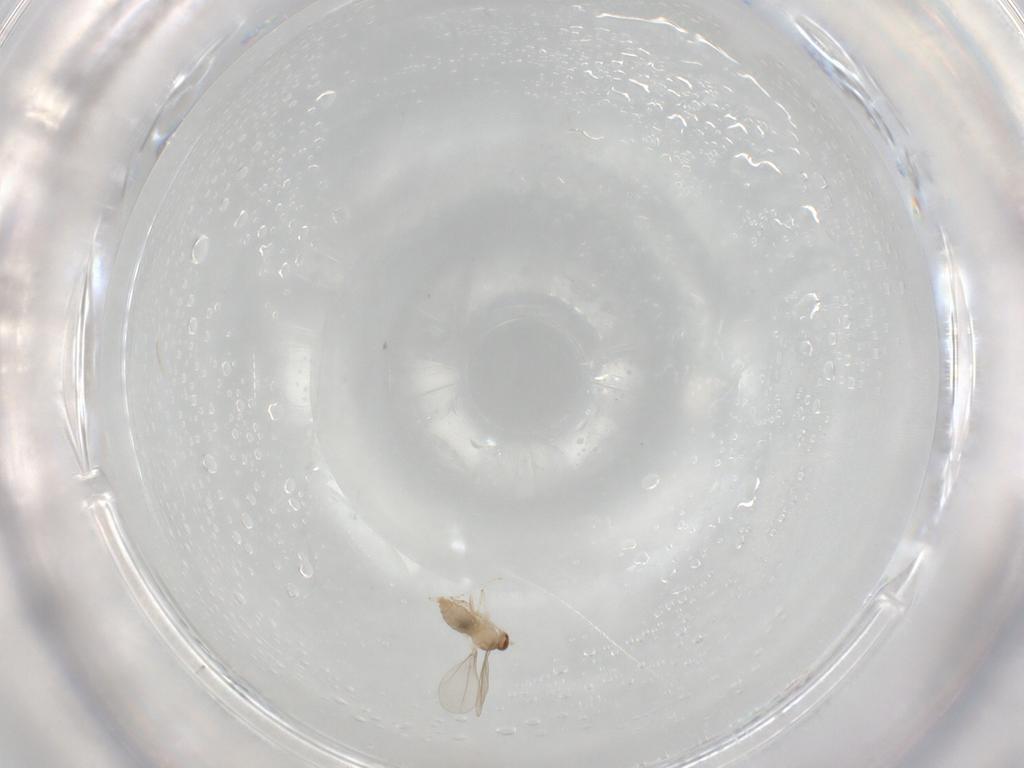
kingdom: Animalia
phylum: Arthropoda
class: Insecta
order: Diptera
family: Cecidomyiidae
